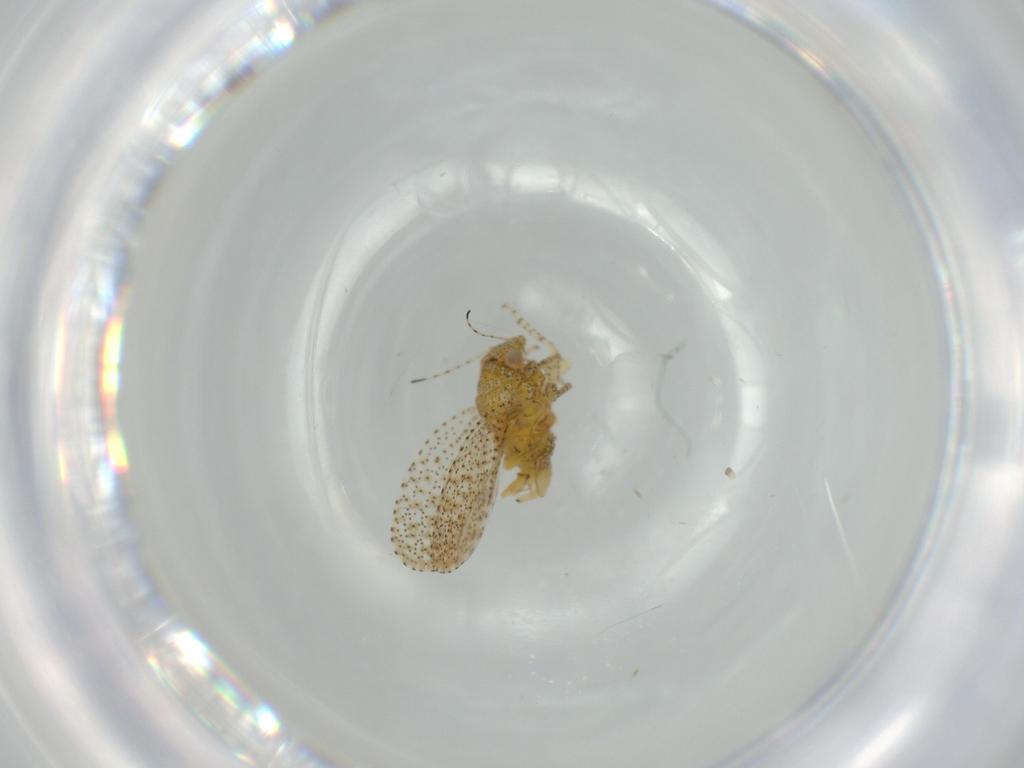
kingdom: Animalia
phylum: Arthropoda
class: Insecta
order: Hemiptera
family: Psyllidae
